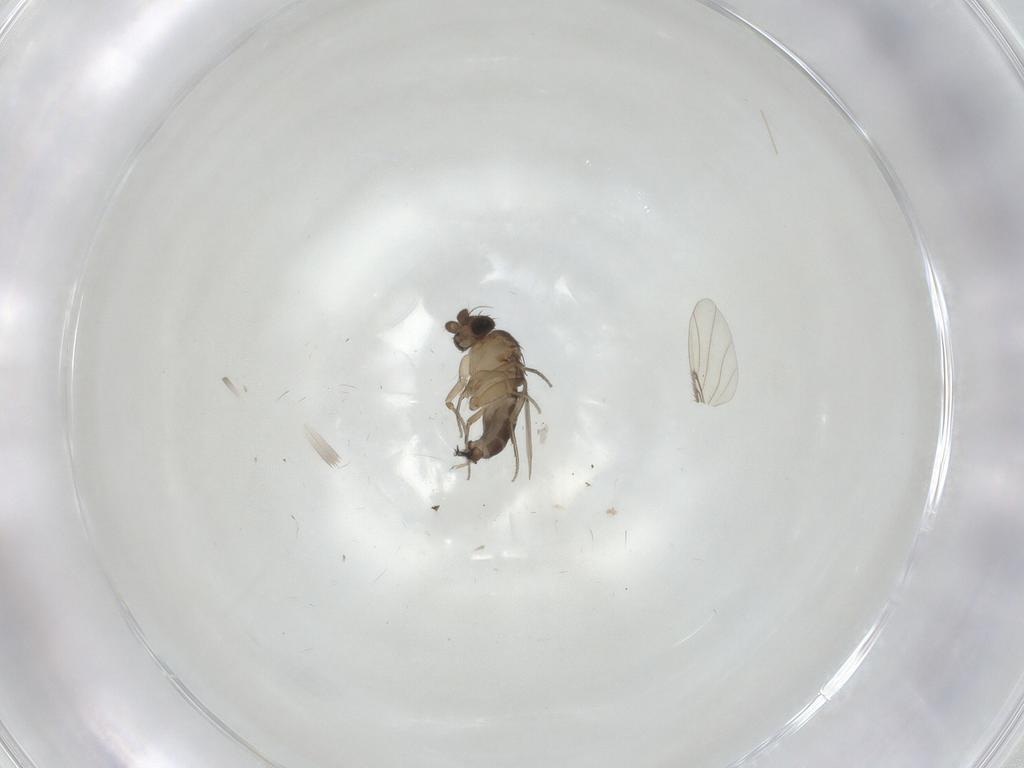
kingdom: Animalia
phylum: Arthropoda
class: Insecta
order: Diptera
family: Phoridae
